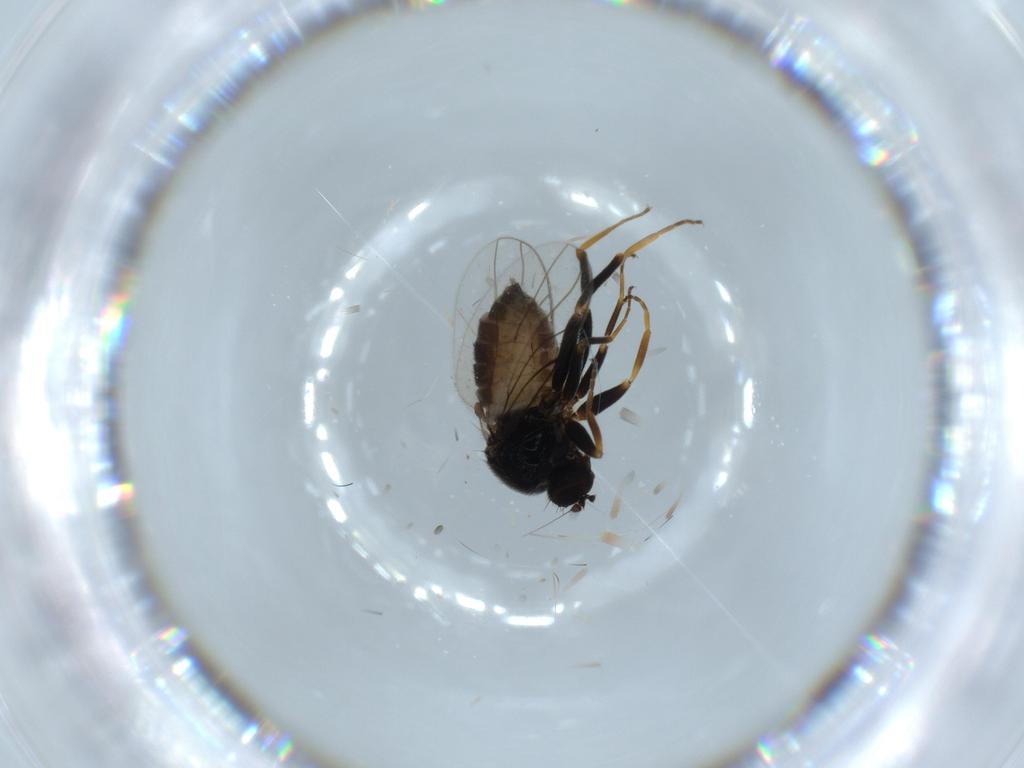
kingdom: Animalia
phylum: Arthropoda
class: Insecta
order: Diptera
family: Hybotidae
